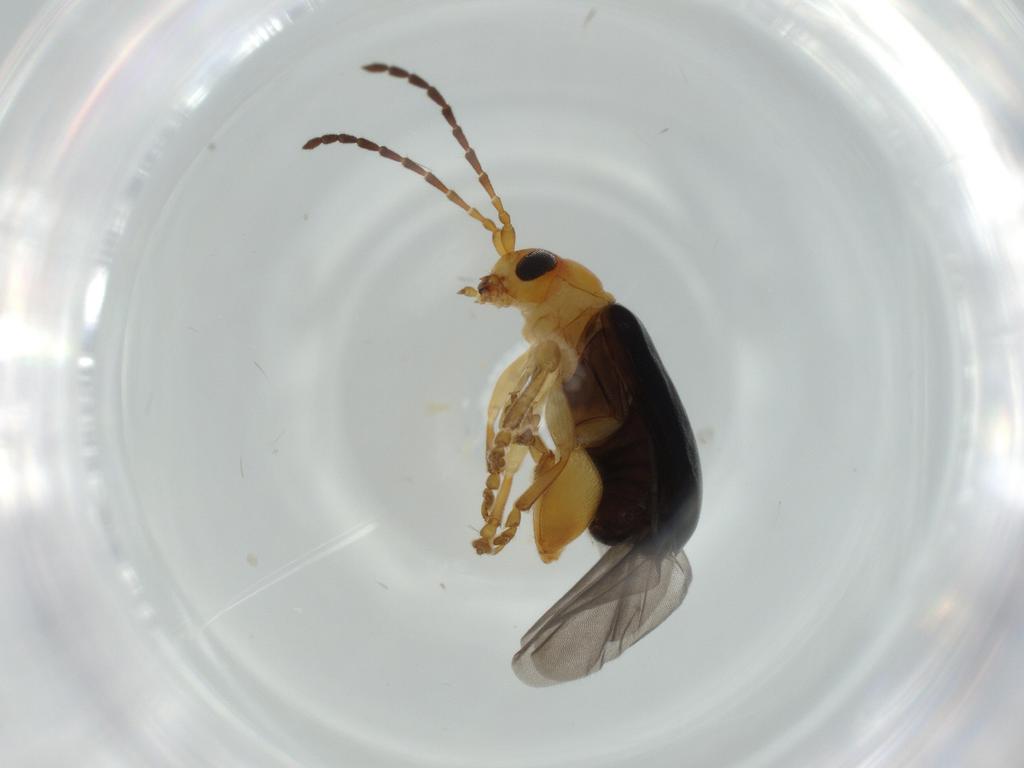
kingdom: Animalia
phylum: Arthropoda
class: Insecta
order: Coleoptera
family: Chrysomelidae
